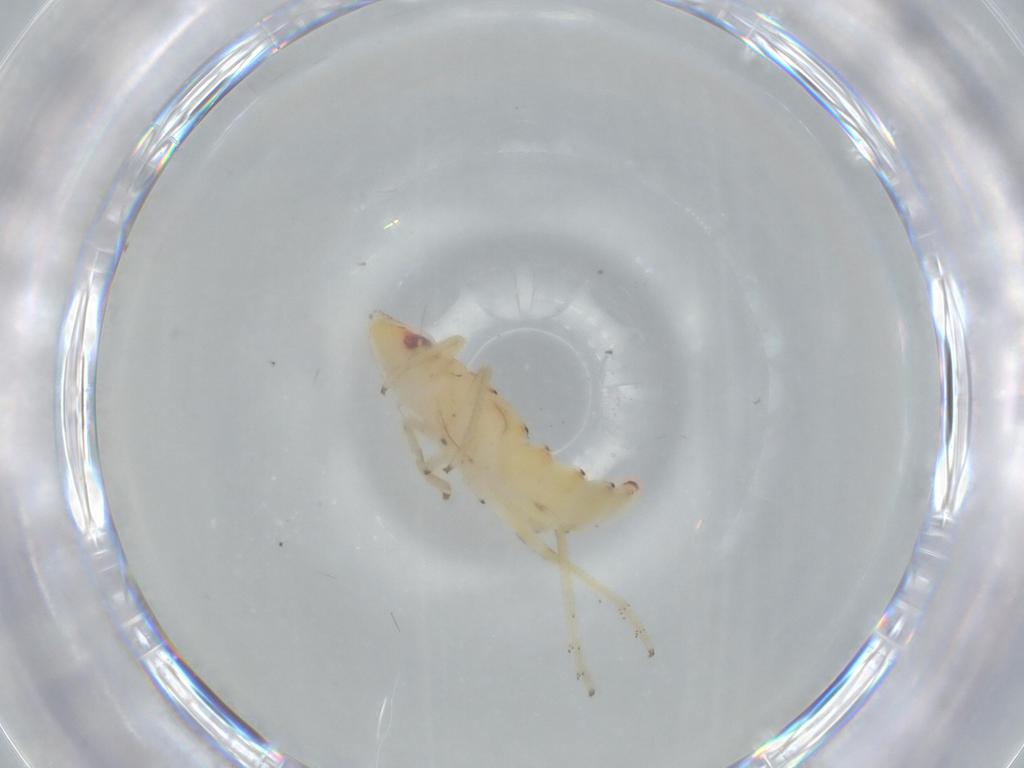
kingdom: Animalia
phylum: Arthropoda
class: Insecta
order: Hemiptera
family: Tropiduchidae
